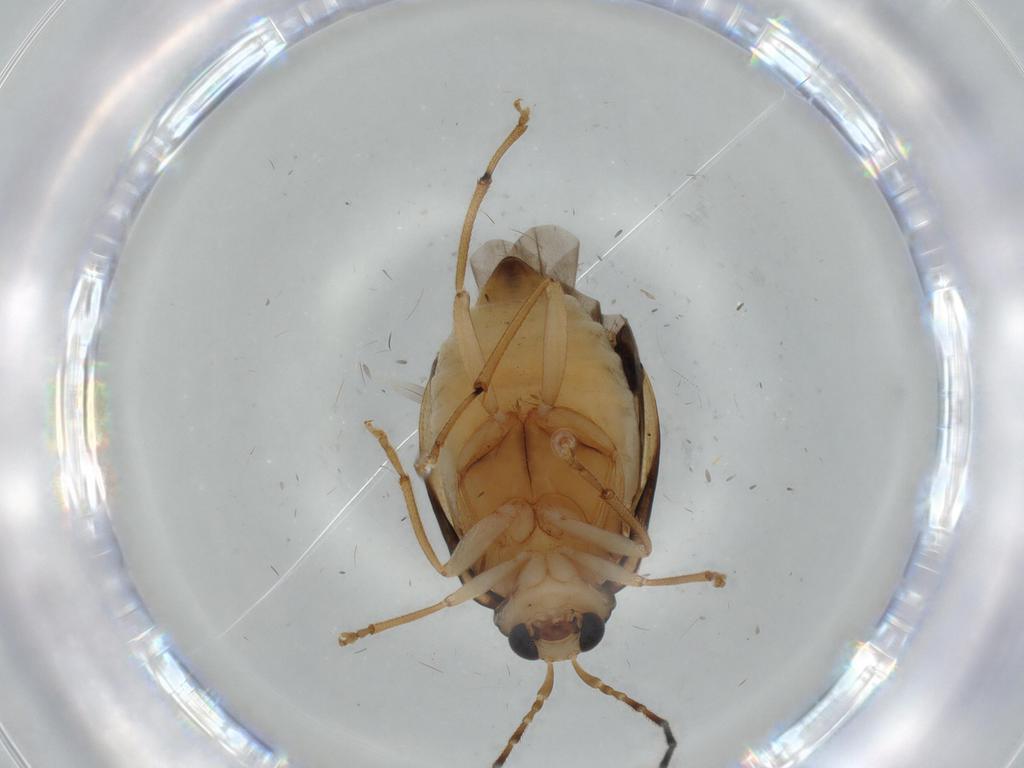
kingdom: Animalia
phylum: Arthropoda
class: Insecta
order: Coleoptera
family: Chrysomelidae
